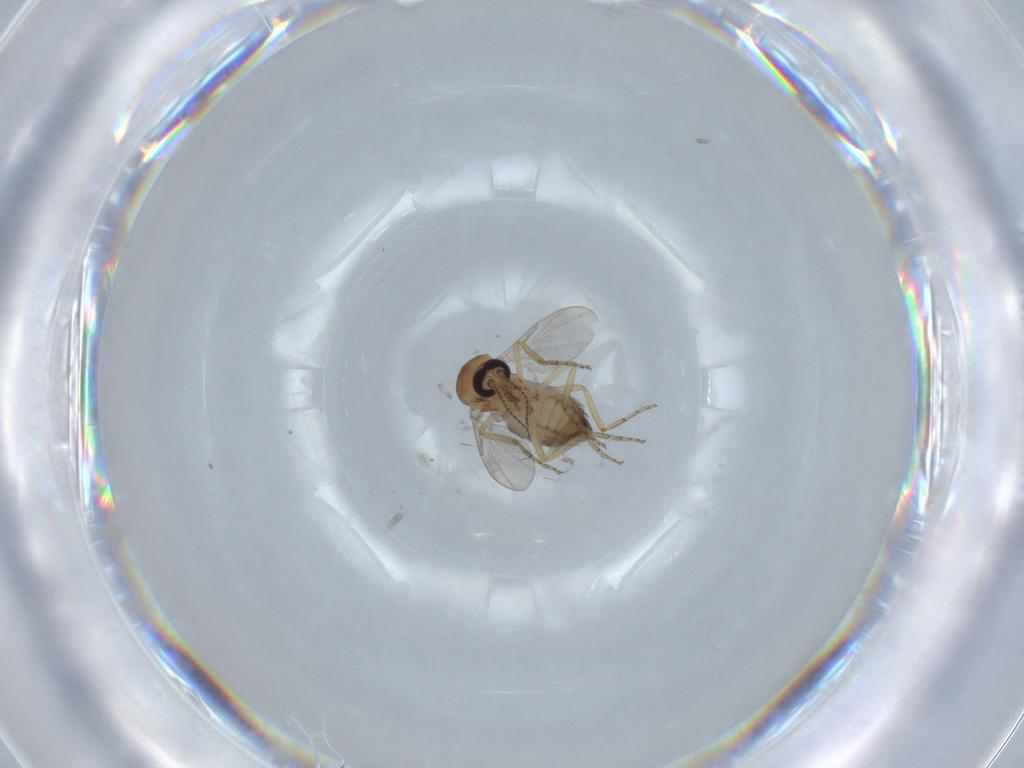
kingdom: Animalia
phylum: Arthropoda
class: Insecta
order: Diptera
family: Ceratopogonidae
